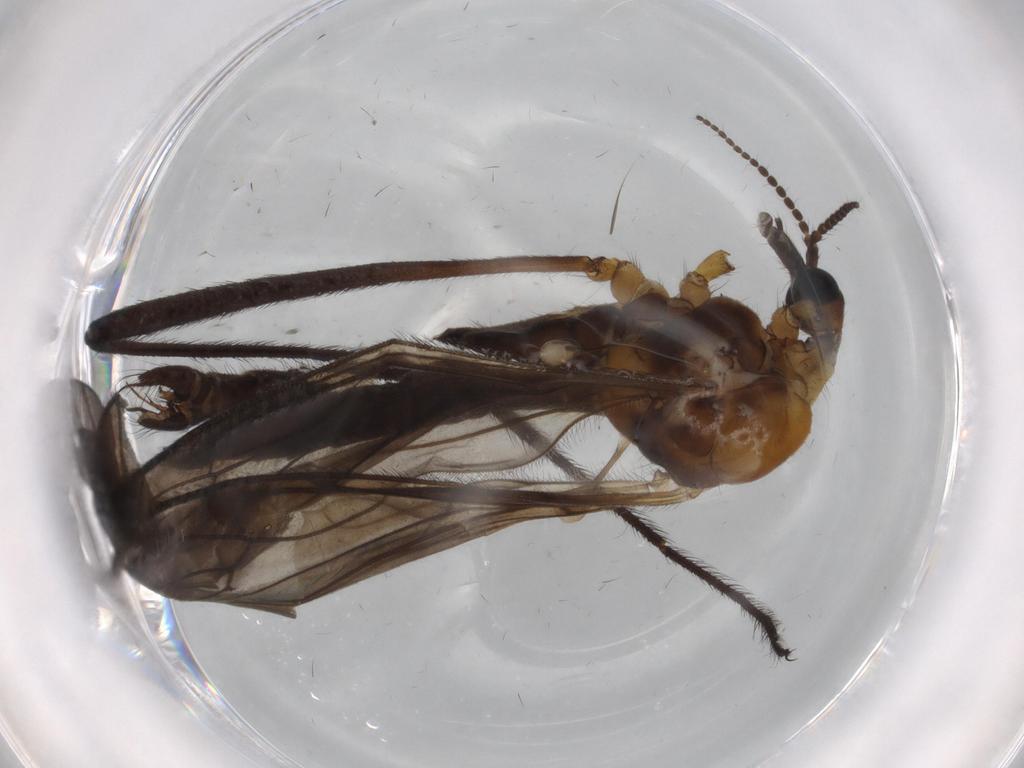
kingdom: Animalia
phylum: Arthropoda
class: Insecta
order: Diptera
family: Limoniidae
